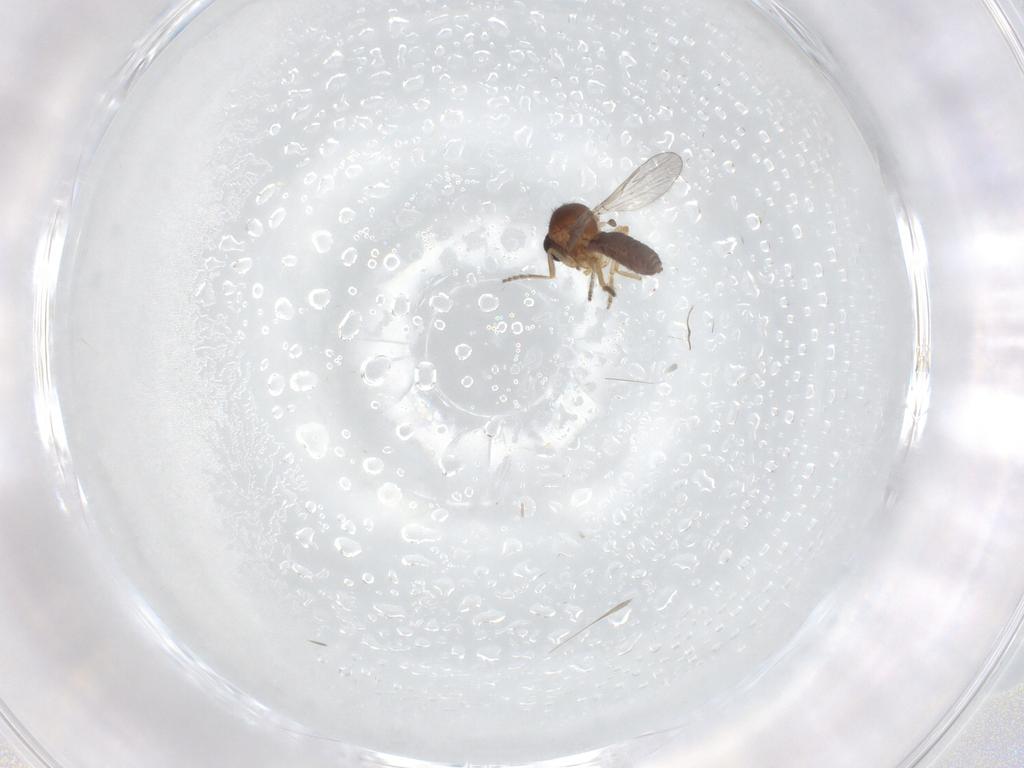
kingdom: Animalia
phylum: Arthropoda
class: Insecta
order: Diptera
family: Ceratopogonidae
